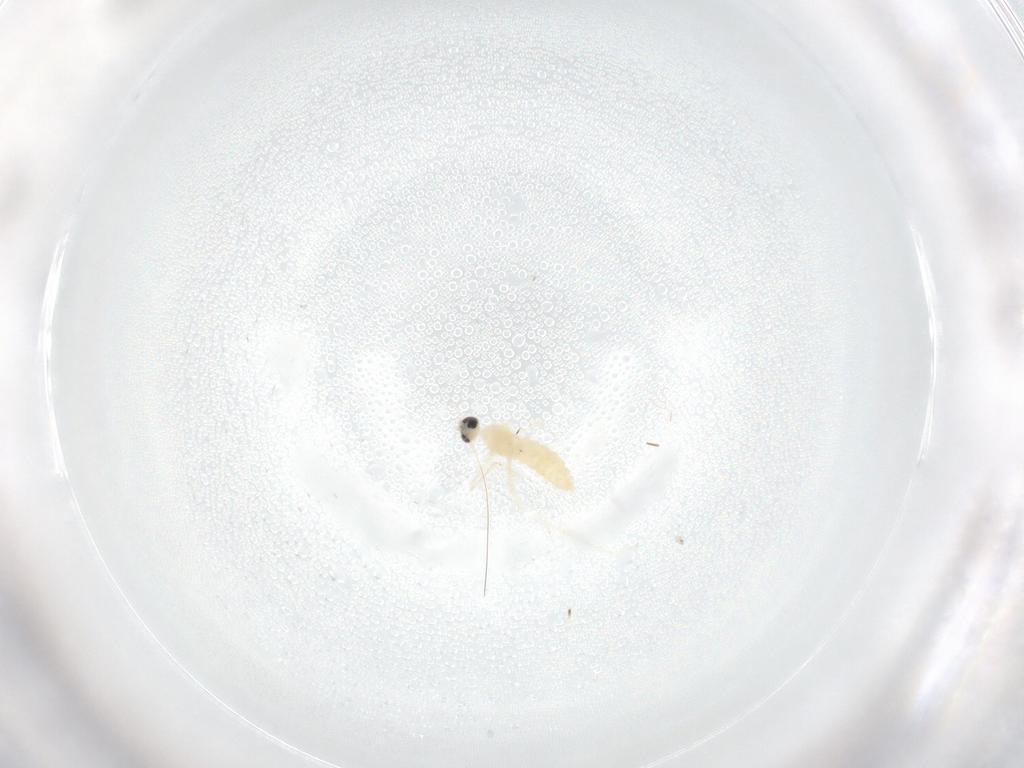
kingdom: Animalia
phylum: Arthropoda
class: Insecta
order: Diptera
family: Cecidomyiidae
